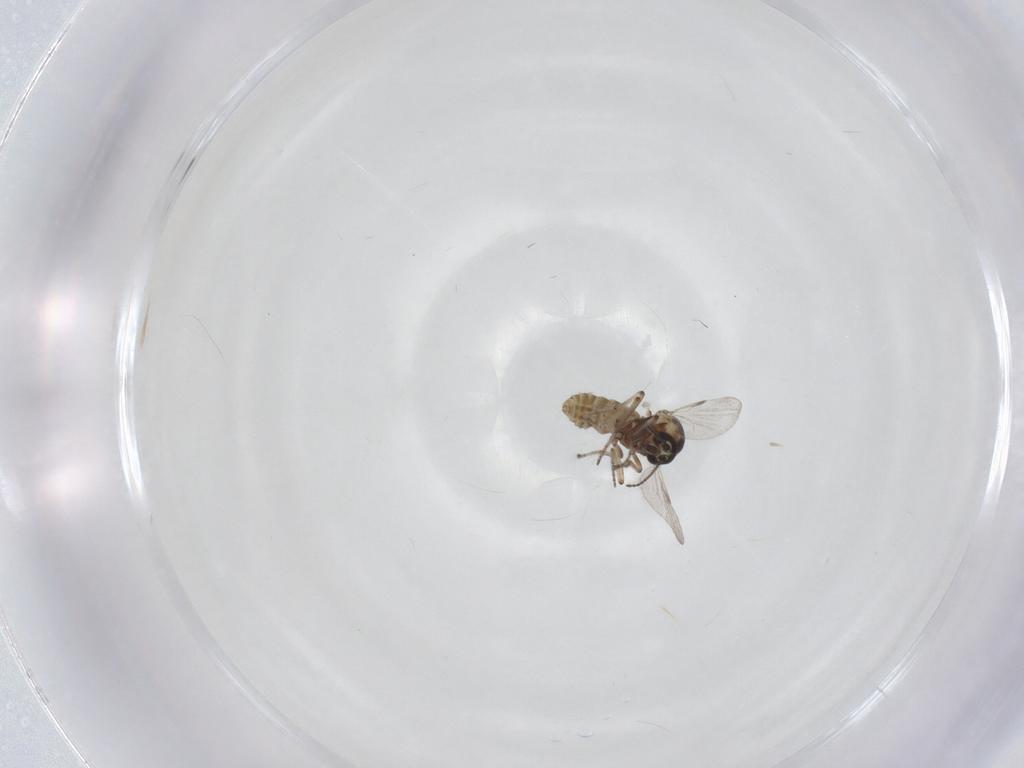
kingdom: Animalia
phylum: Arthropoda
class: Insecta
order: Diptera
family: Ceratopogonidae
